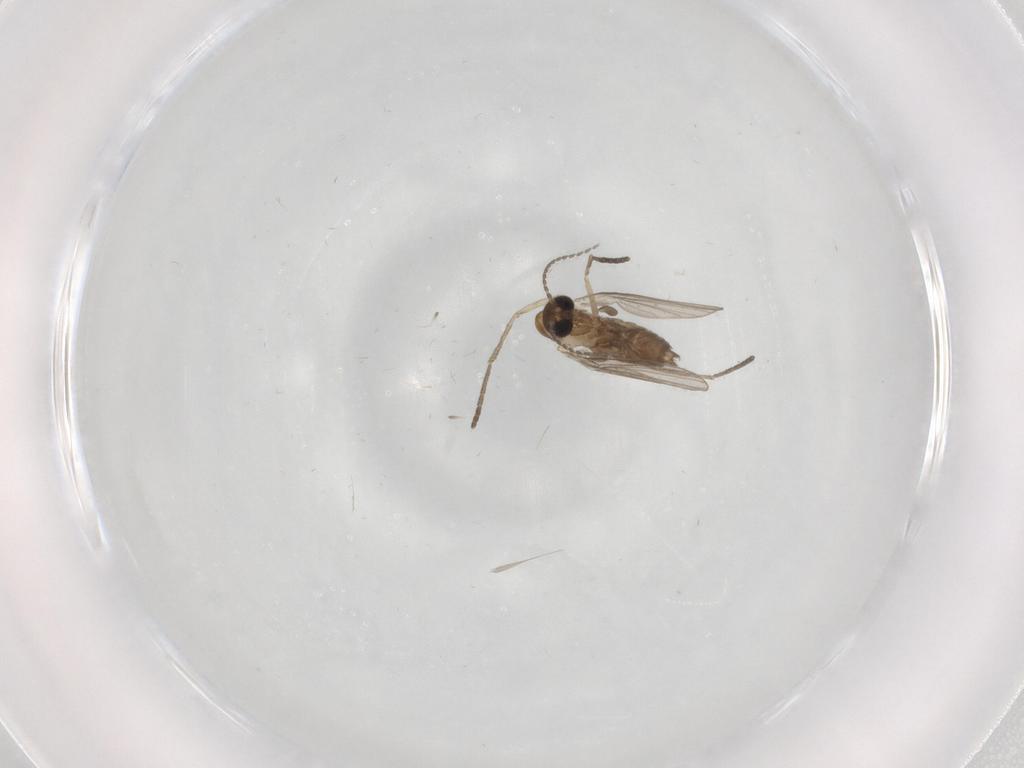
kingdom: Animalia
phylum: Arthropoda
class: Insecta
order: Diptera
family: Psychodidae
